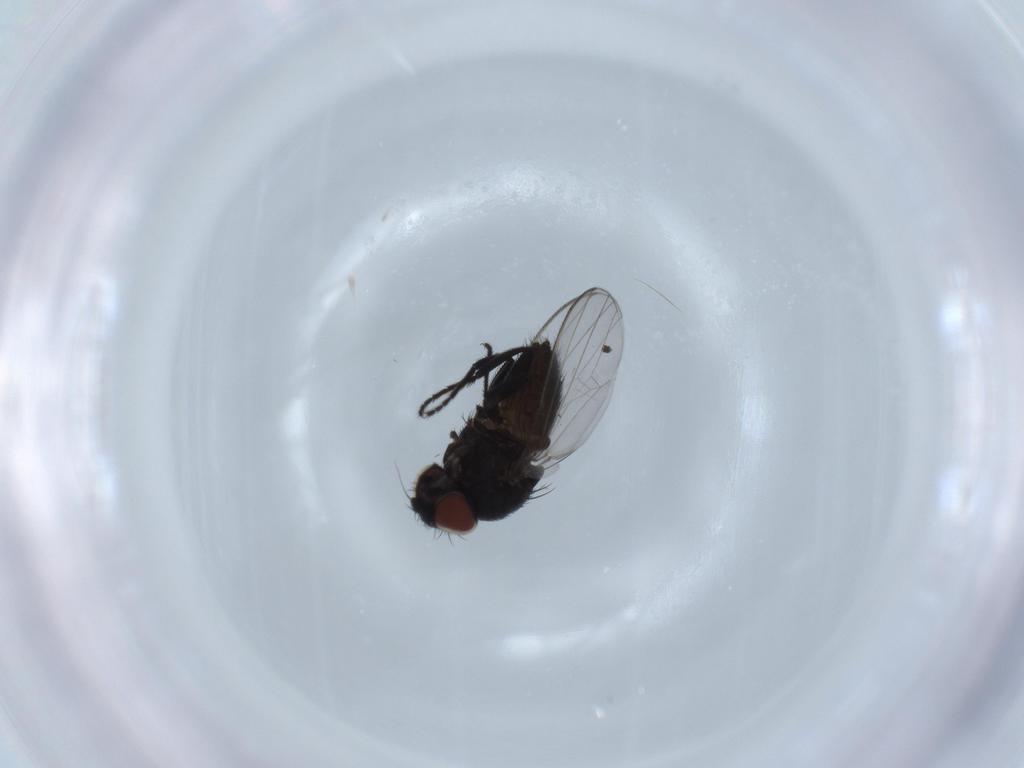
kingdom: Animalia
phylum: Arthropoda
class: Insecta
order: Diptera
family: Milichiidae
